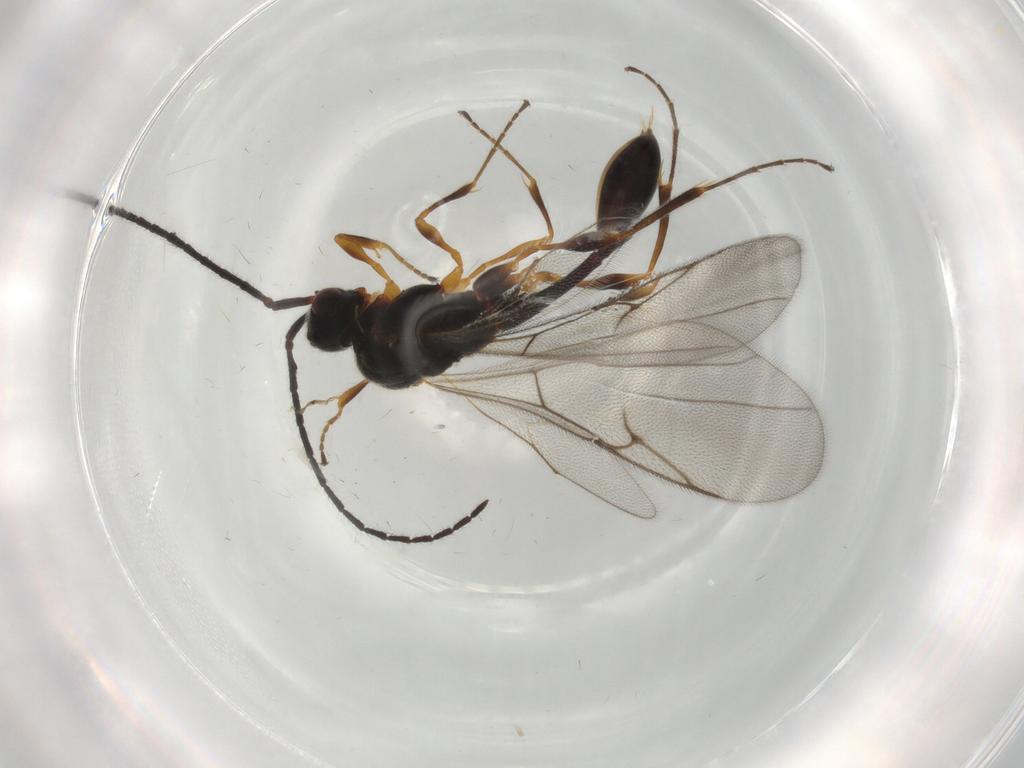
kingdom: Animalia
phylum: Arthropoda
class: Insecta
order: Hymenoptera
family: Diapriidae
